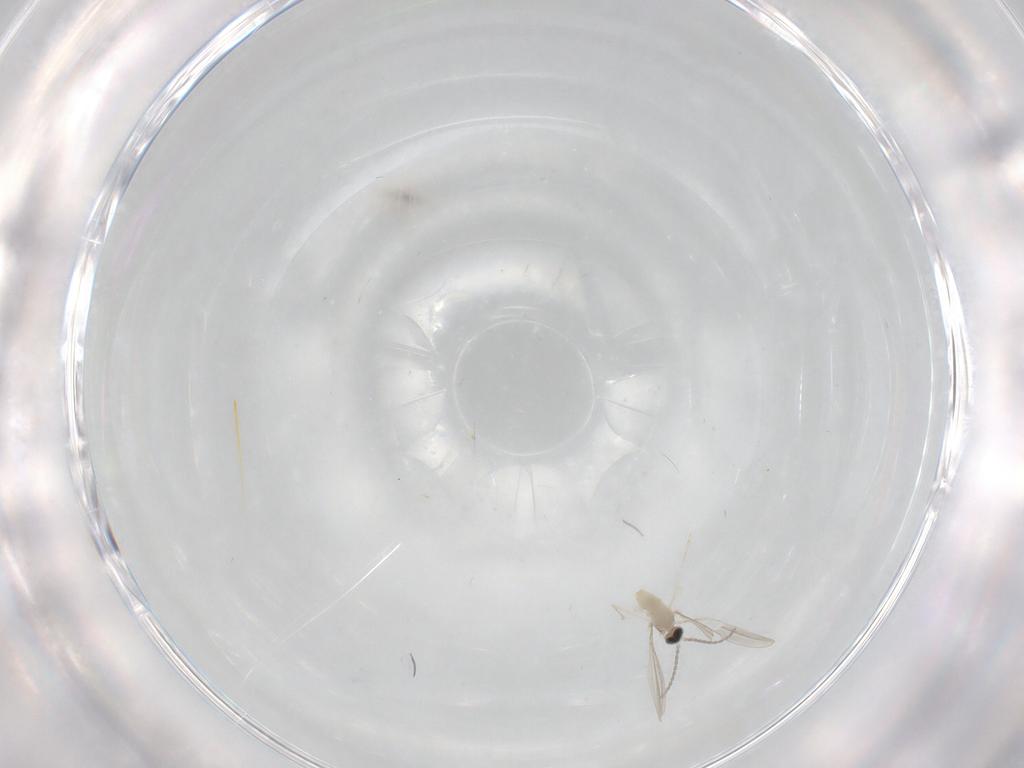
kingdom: Animalia
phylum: Arthropoda
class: Insecta
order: Diptera
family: Cecidomyiidae
